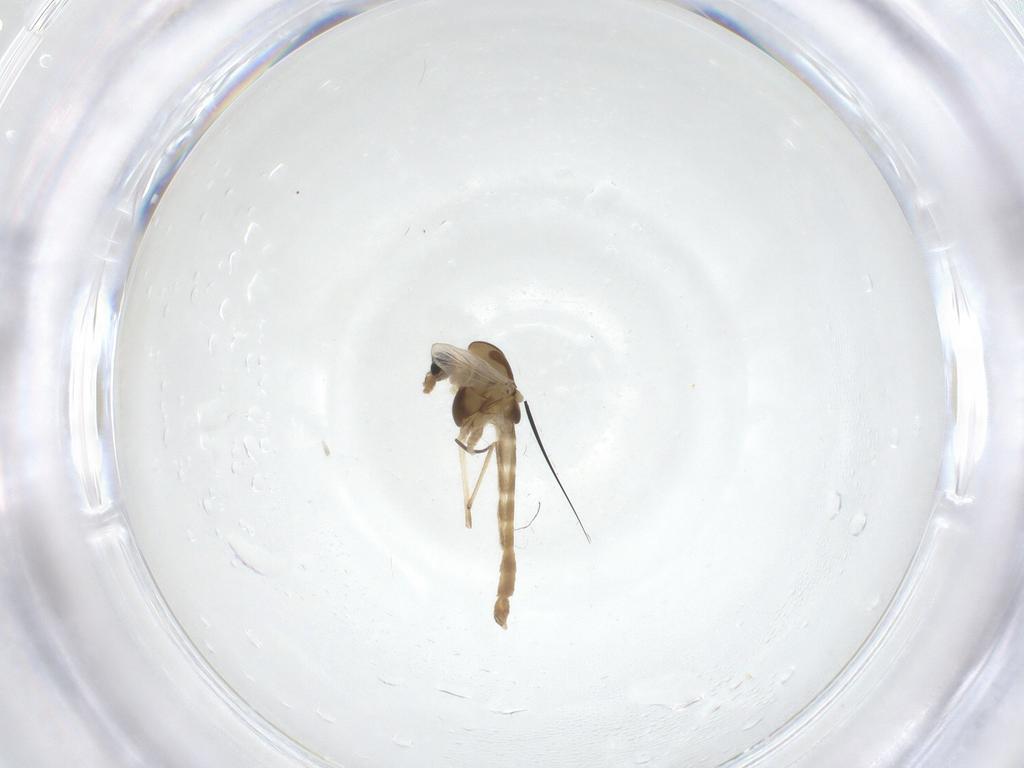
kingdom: Animalia
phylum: Arthropoda
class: Insecta
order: Diptera
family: Chironomidae
